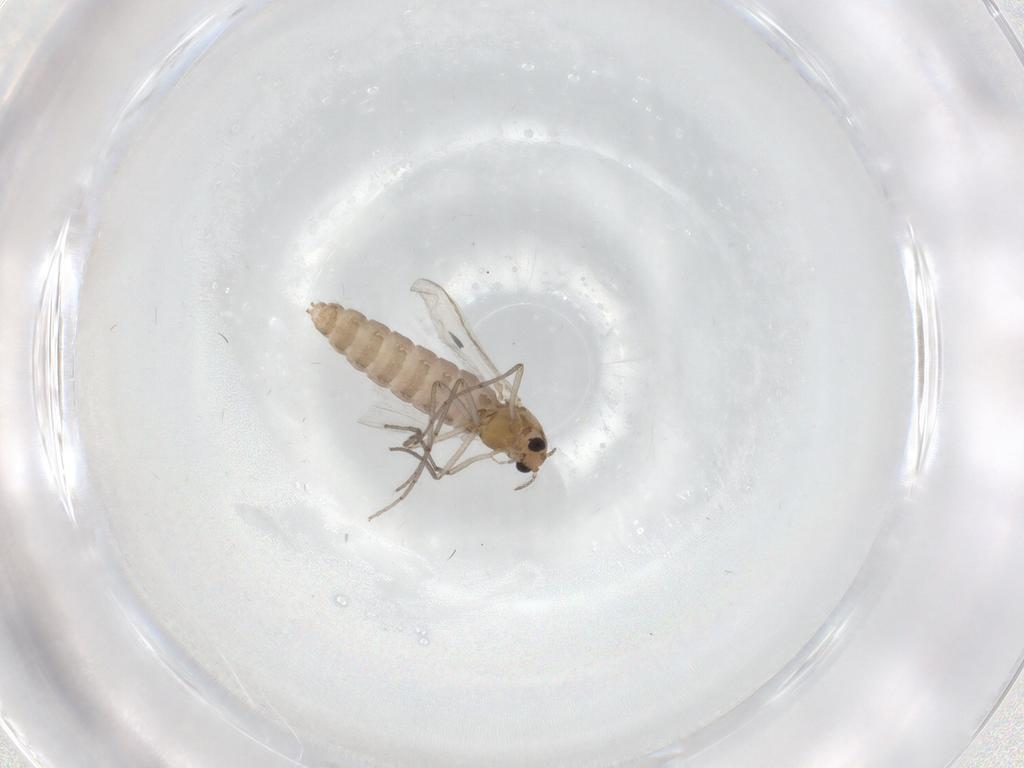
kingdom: Animalia
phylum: Arthropoda
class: Insecta
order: Diptera
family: Chironomidae
